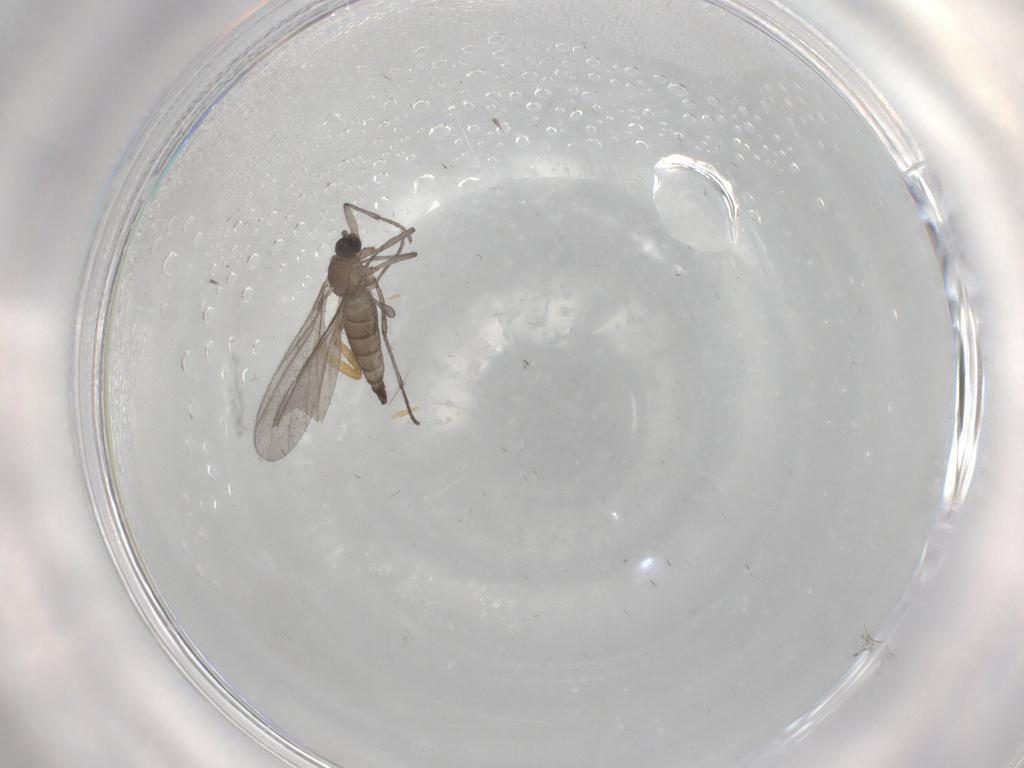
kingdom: Animalia
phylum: Arthropoda
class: Insecta
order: Diptera
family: Sciaridae
